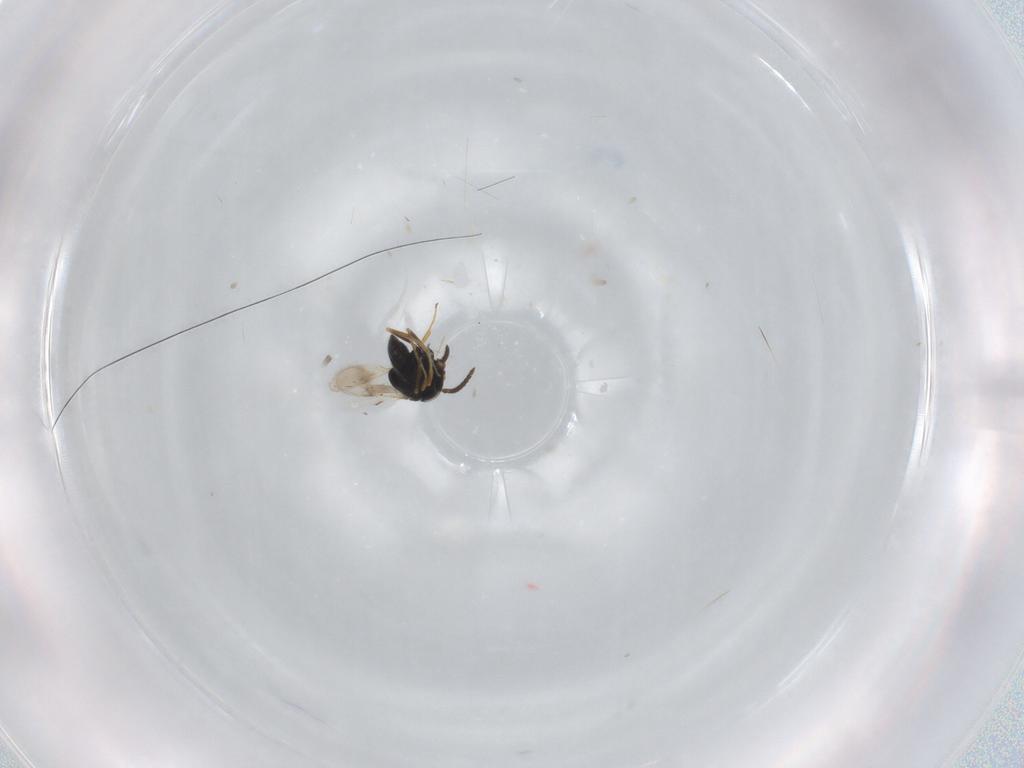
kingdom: Animalia
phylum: Arthropoda
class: Insecta
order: Hymenoptera
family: Scelionidae
